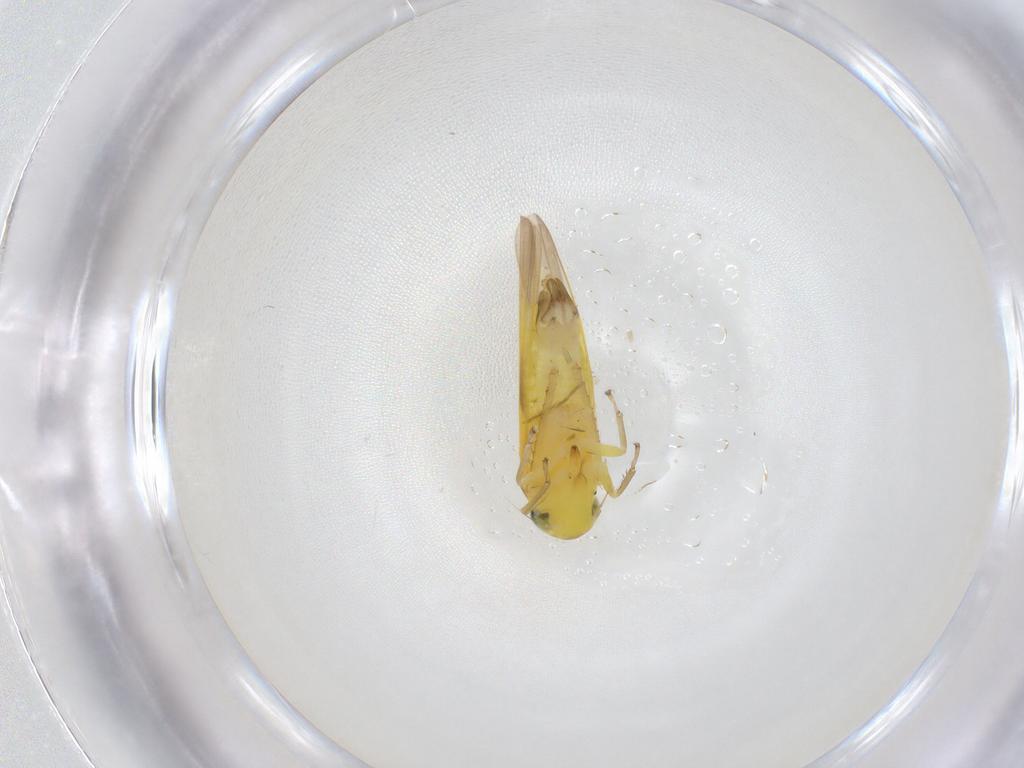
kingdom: Animalia
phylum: Arthropoda
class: Insecta
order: Hemiptera
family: Cicadellidae
